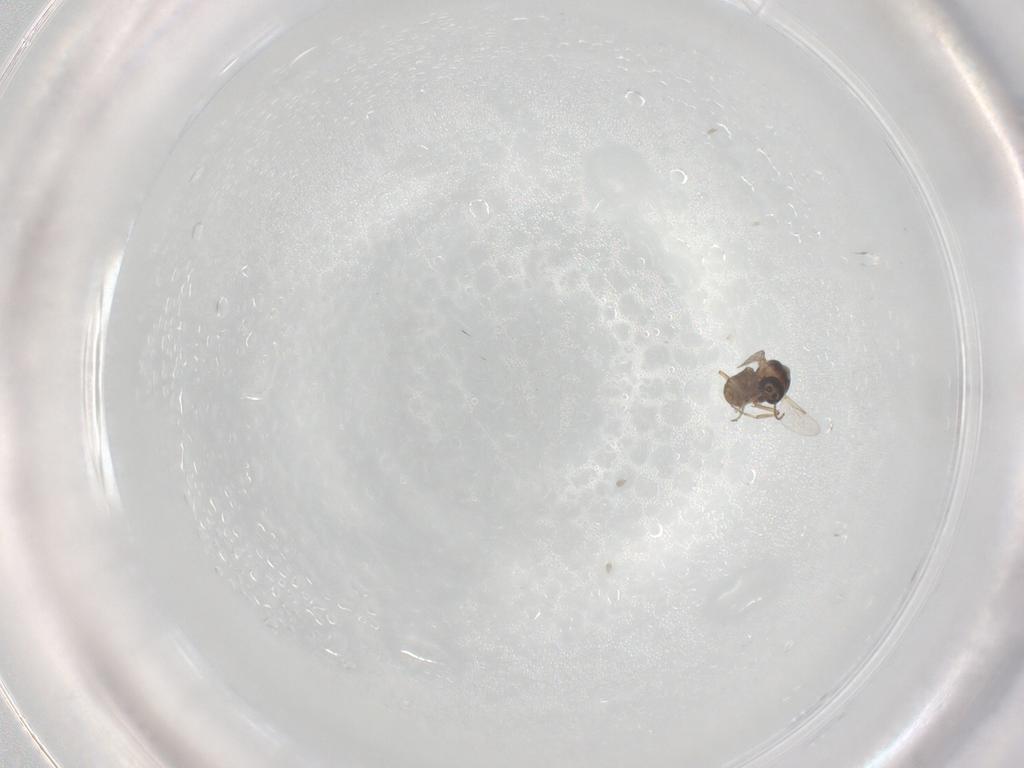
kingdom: Animalia
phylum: Arthropoda
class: Insecta
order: Diptera
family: Ceratopogonidae
